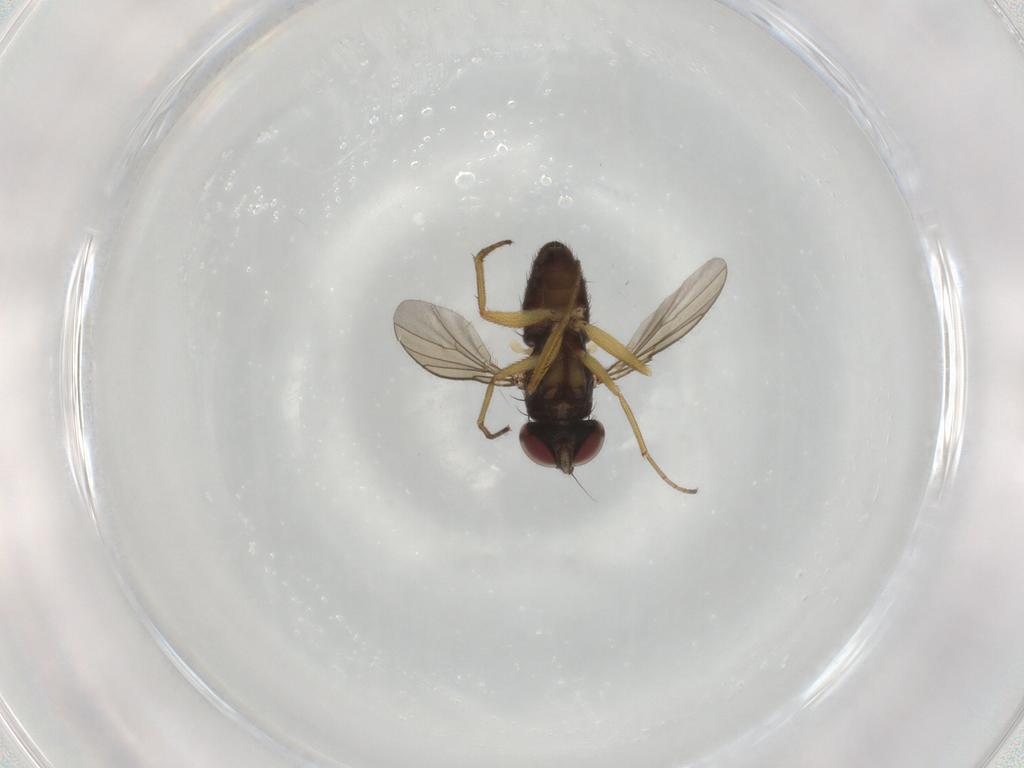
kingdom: Animalia
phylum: Arthropoda
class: Insecta
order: Diptera
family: Dolichopodidae
